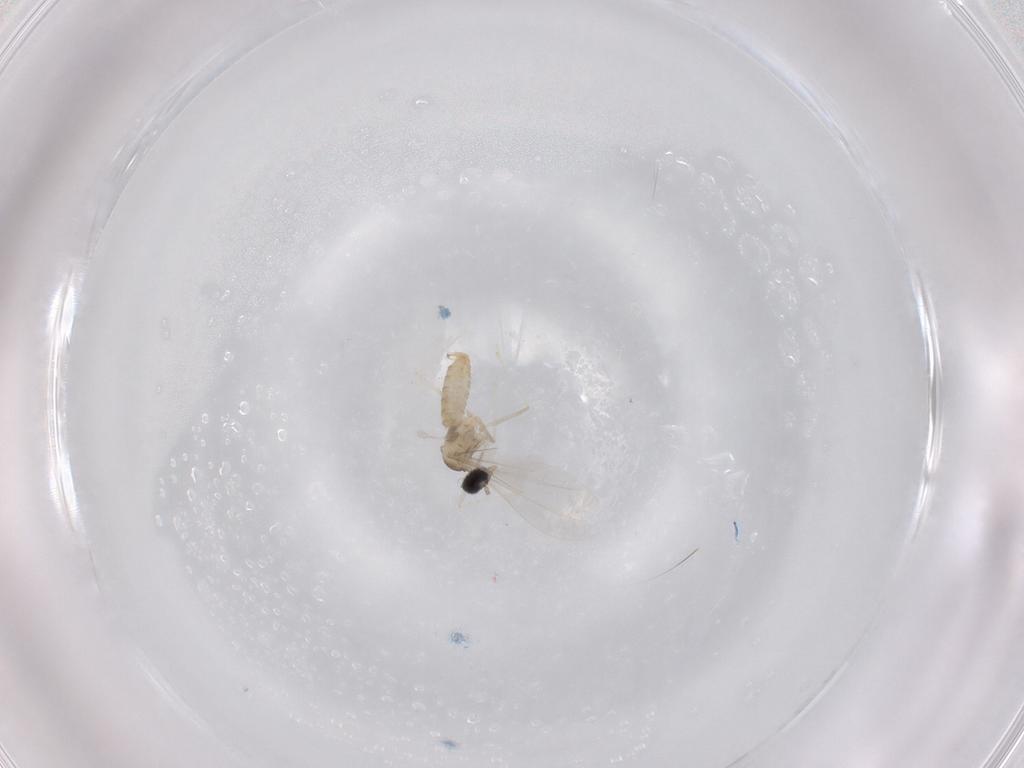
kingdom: Animalia
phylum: Arthropoda
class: Insecta
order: Diptera
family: Cecidomyiidae
